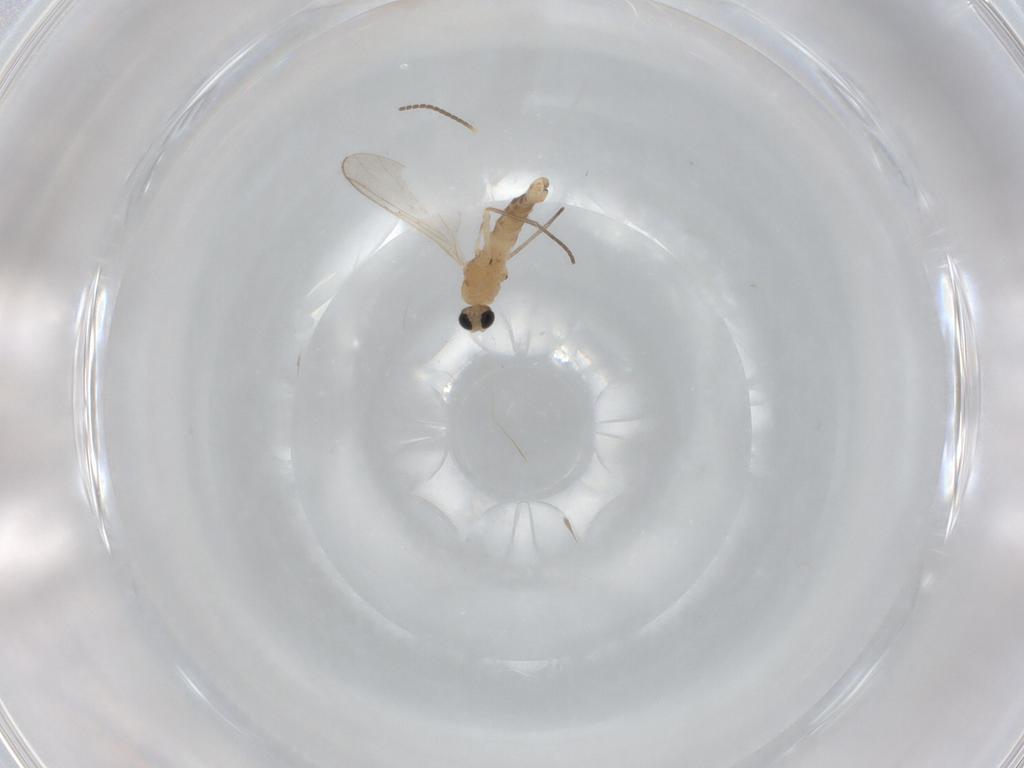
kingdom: Animalia
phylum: Arthropoda
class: Insecta
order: Diptera
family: Sciaridae
